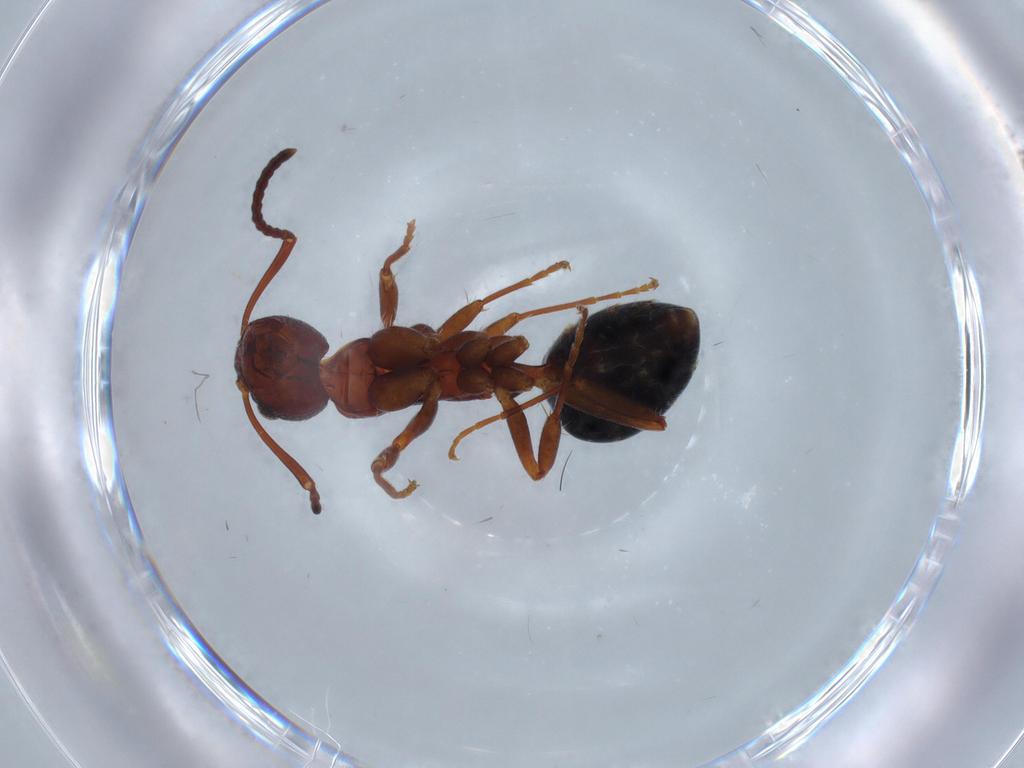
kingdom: Animalia
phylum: Arthropoda
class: Insecta
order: Hymenoptera
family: Formicidae
